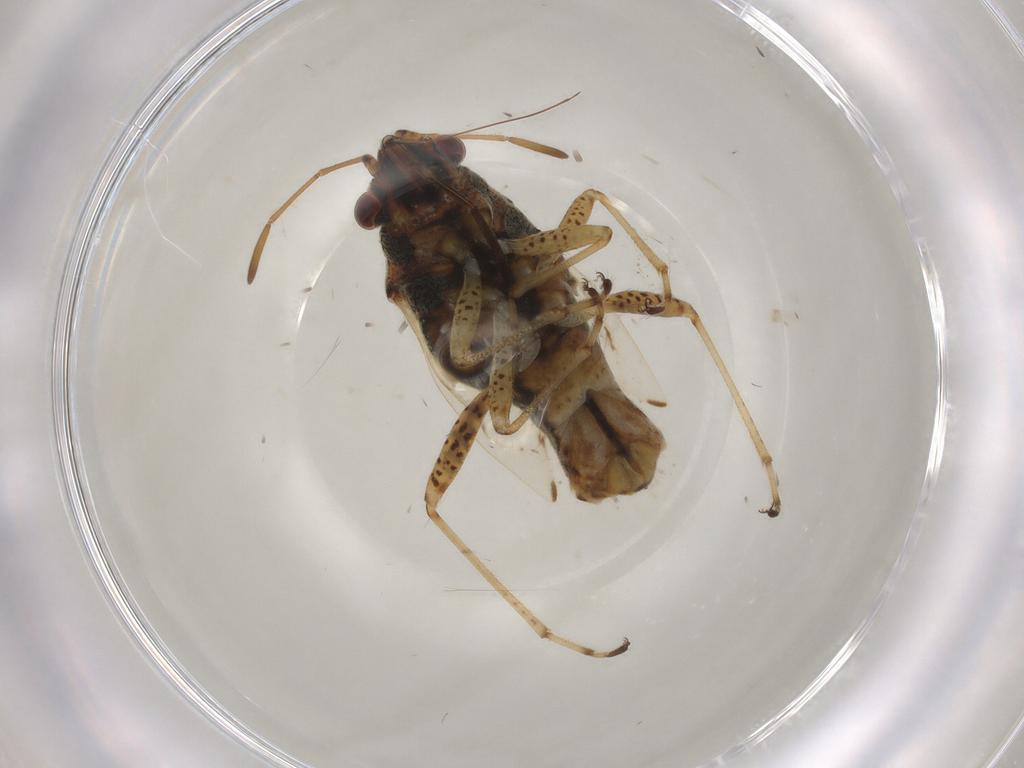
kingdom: Animalia
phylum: Arthropoda
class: Insecta
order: Hemiptera
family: Lygaeidae
